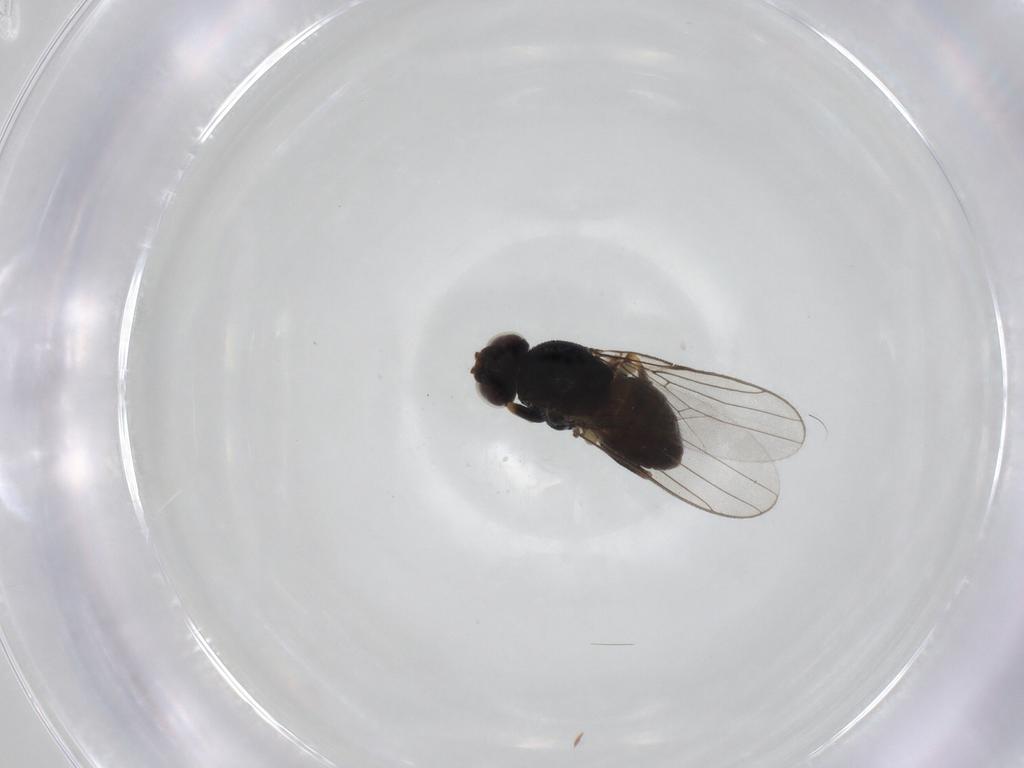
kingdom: Animalia
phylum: Arthropoda
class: Insecta
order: Diptera
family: Chloropidae
